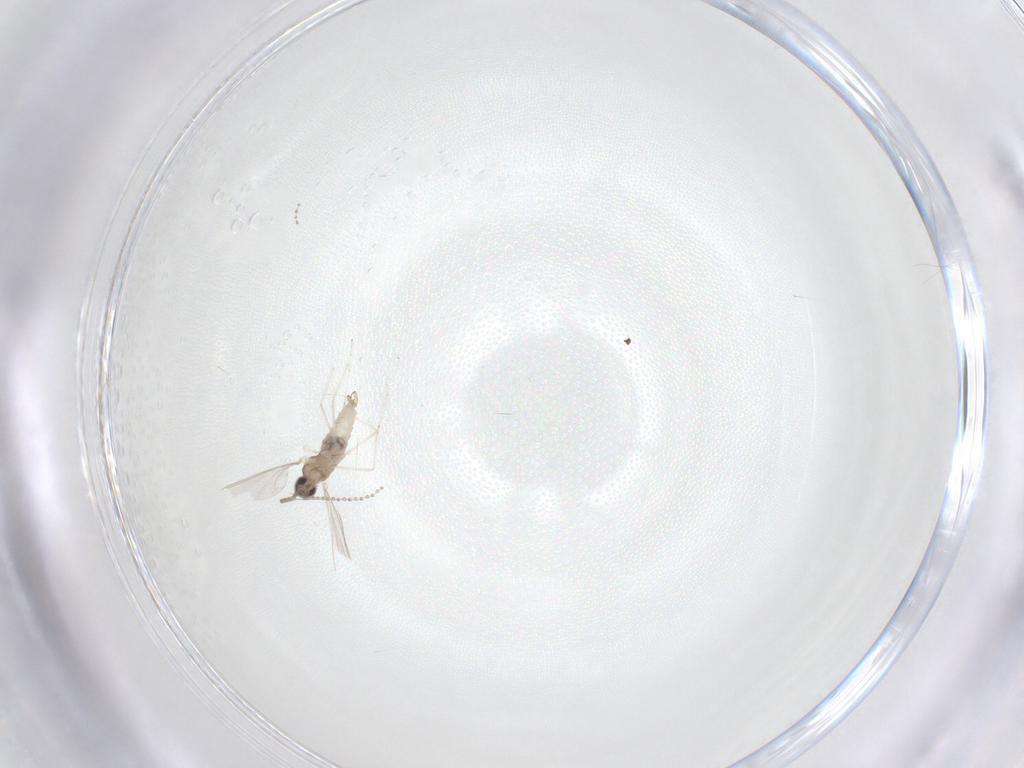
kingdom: Animalia
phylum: Arthropoda
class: Insecta
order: Diptera
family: Cecidomyiidae
